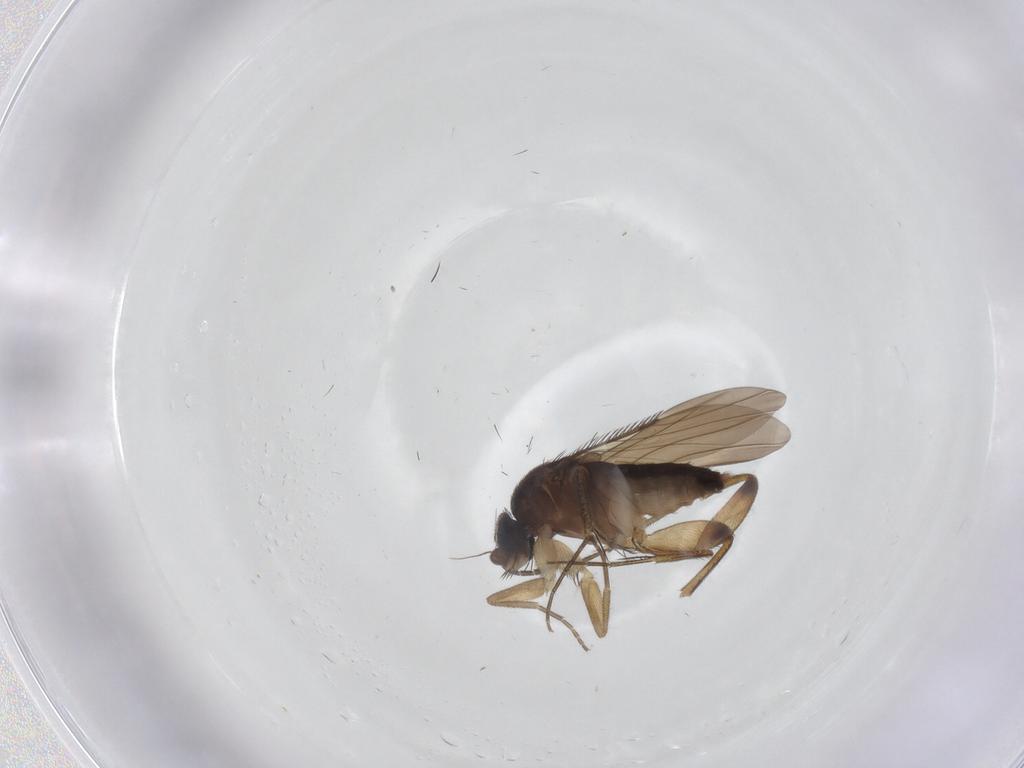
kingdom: Animalia
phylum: Arthropoda
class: Insecta
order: Diptera
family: Sciaridae
